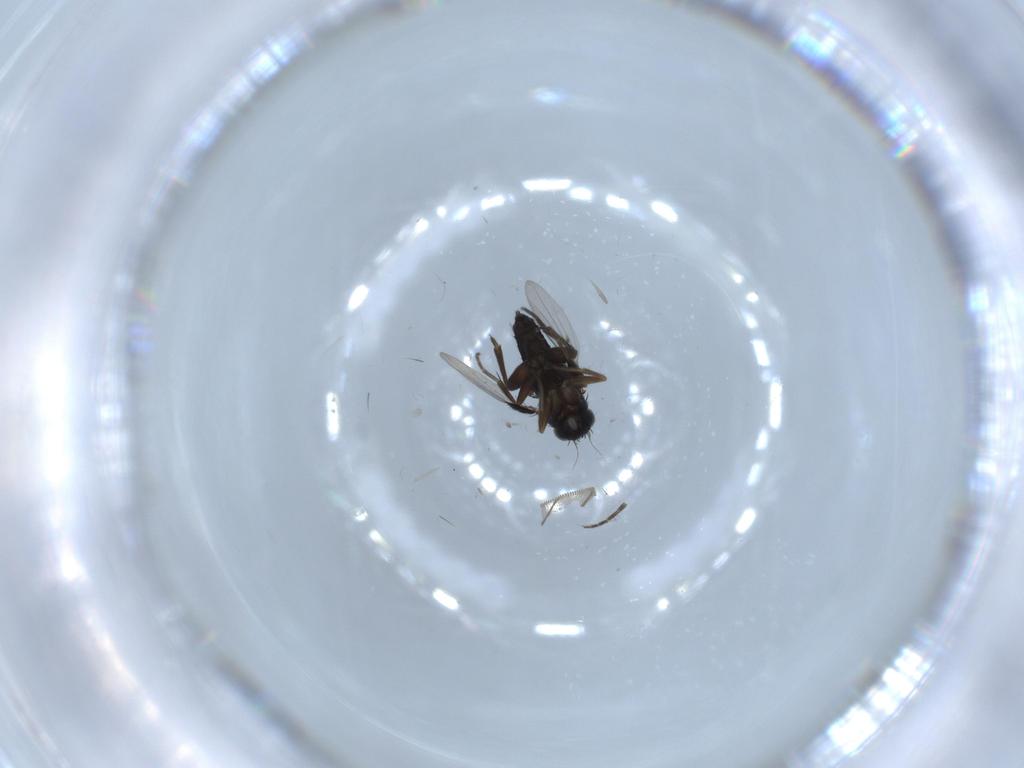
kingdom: Animalia
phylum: Arthropoda
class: Insecta
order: Diptera
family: Phoridae
